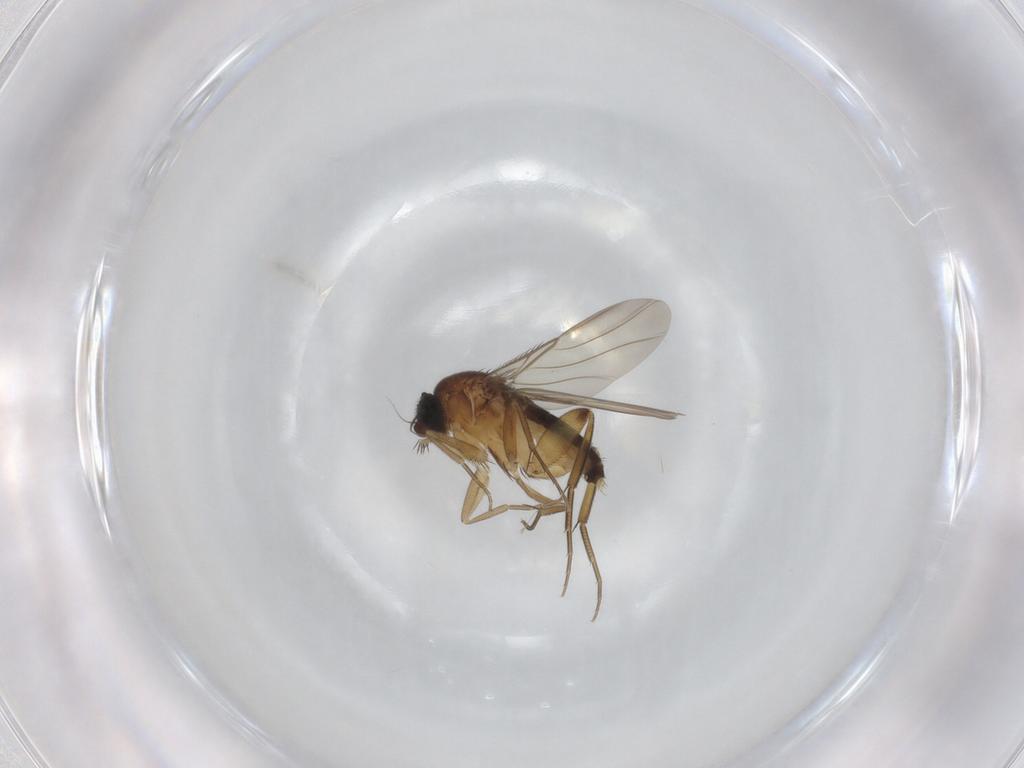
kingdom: Animalia
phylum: Arthropoda
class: Insecta
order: Diptera
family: Phoridae
